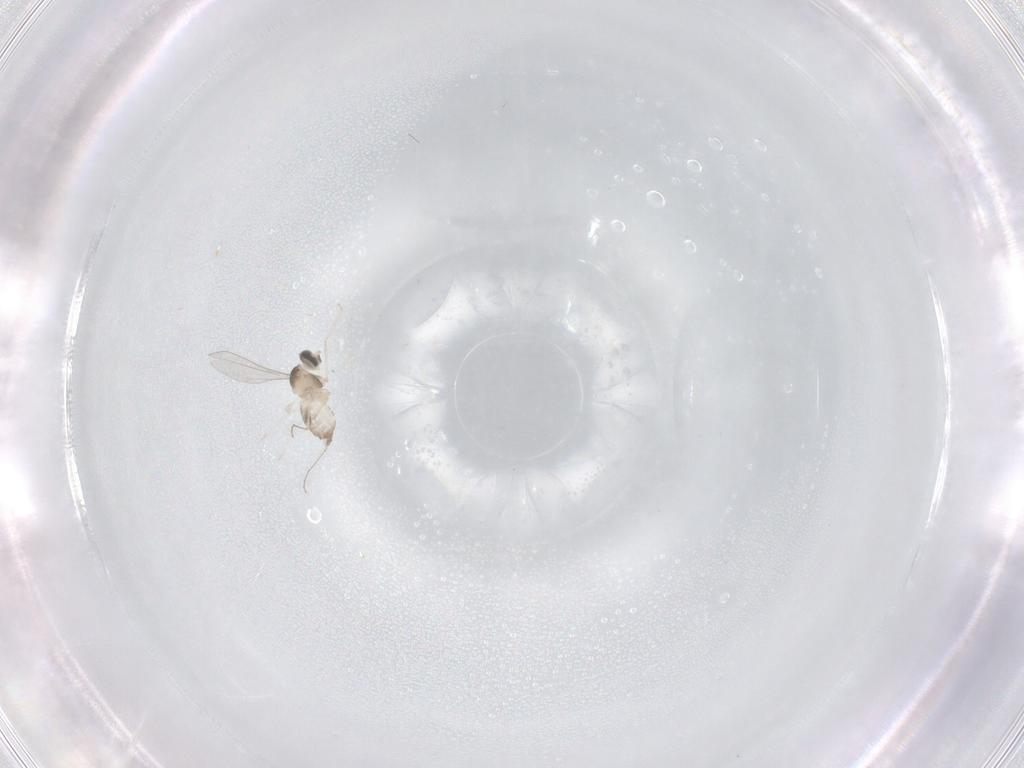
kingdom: Animalia
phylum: Arthropoda
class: Insecta
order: Diptera
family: Cecidomyiidae
